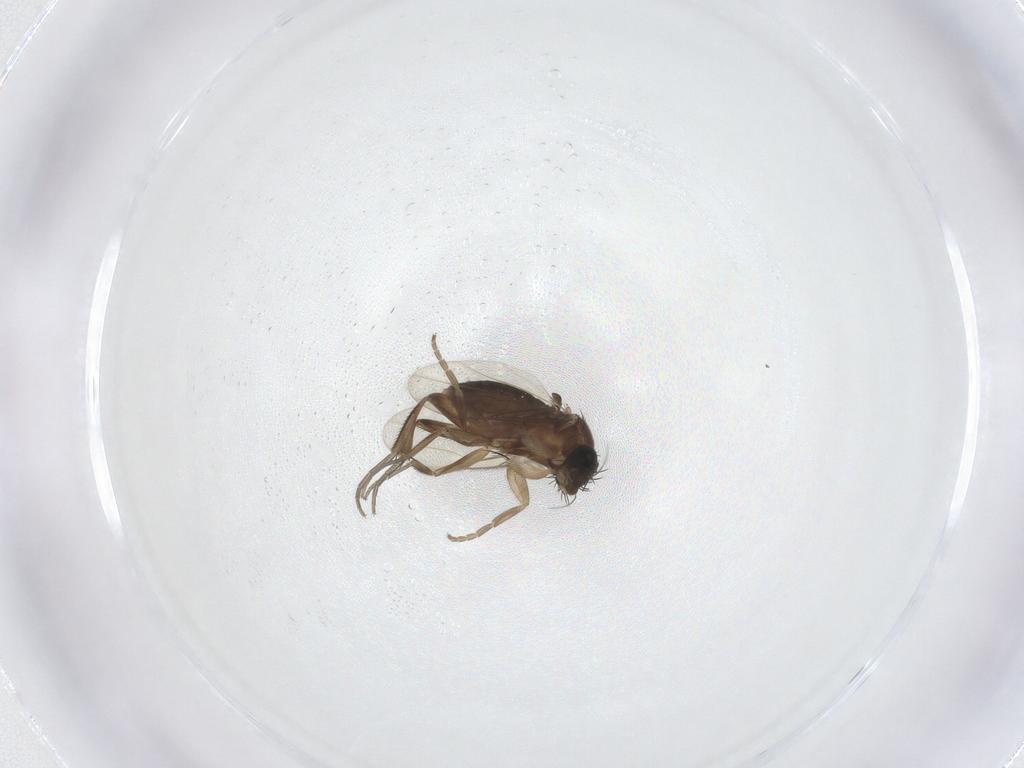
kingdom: Animalia
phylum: Arthropoda
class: Insecta
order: Diptera
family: Phoridae
